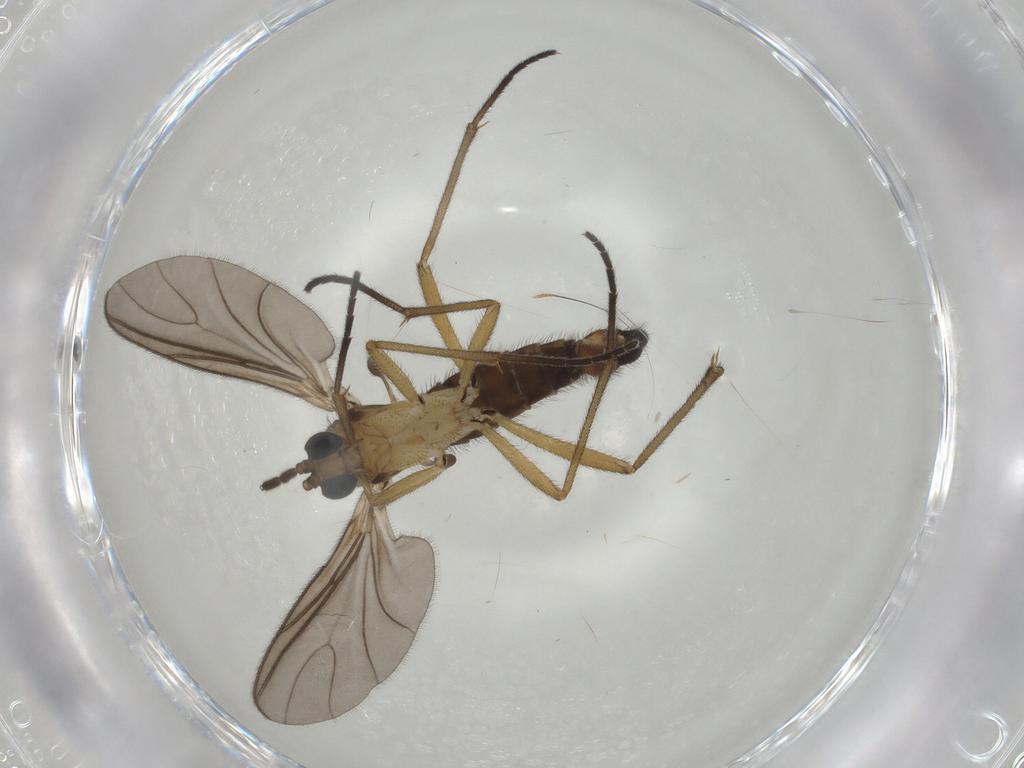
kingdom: Animalia
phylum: Arthropoda
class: Insecta
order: Diptera
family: Sciaridae
